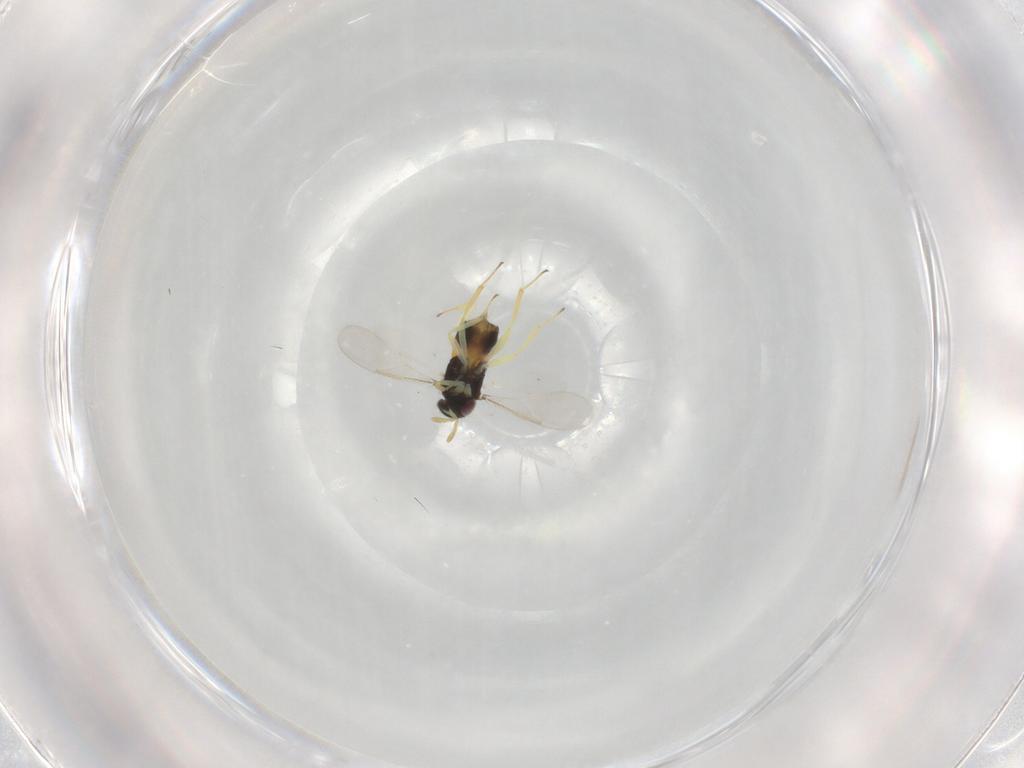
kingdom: Animalia
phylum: Arthropoda
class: Insecta
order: Hymenoptera
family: Aphelinidae
